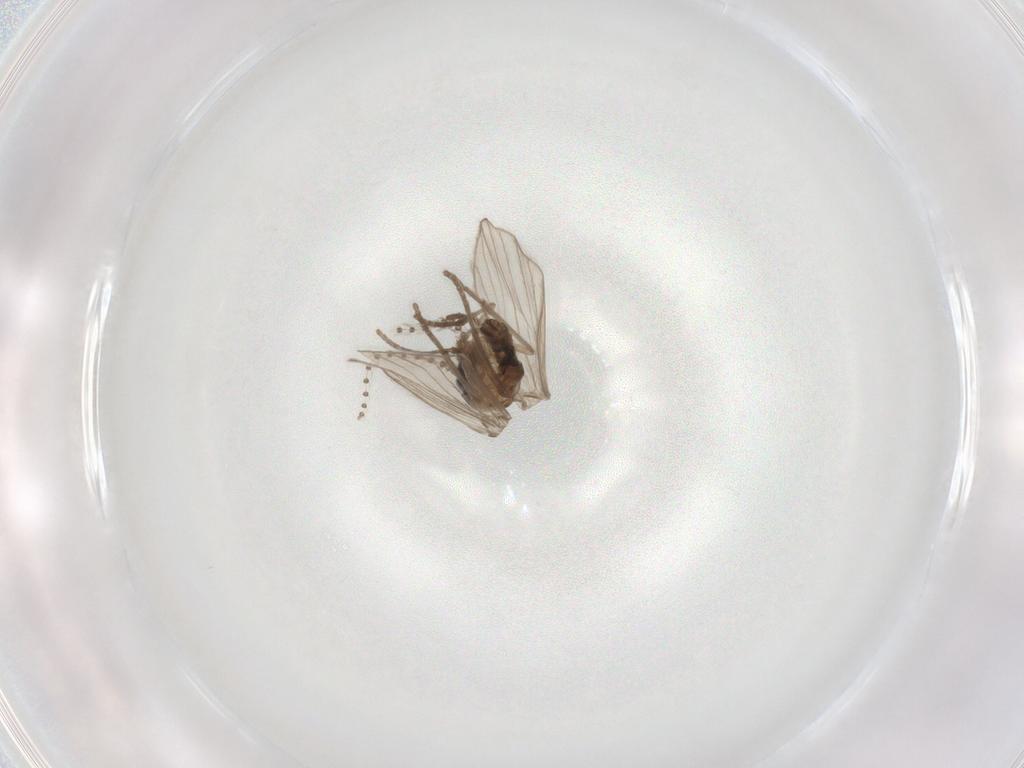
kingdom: Animalia
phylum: Arthropoda
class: Insecta
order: Diptera
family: Psychodidae
